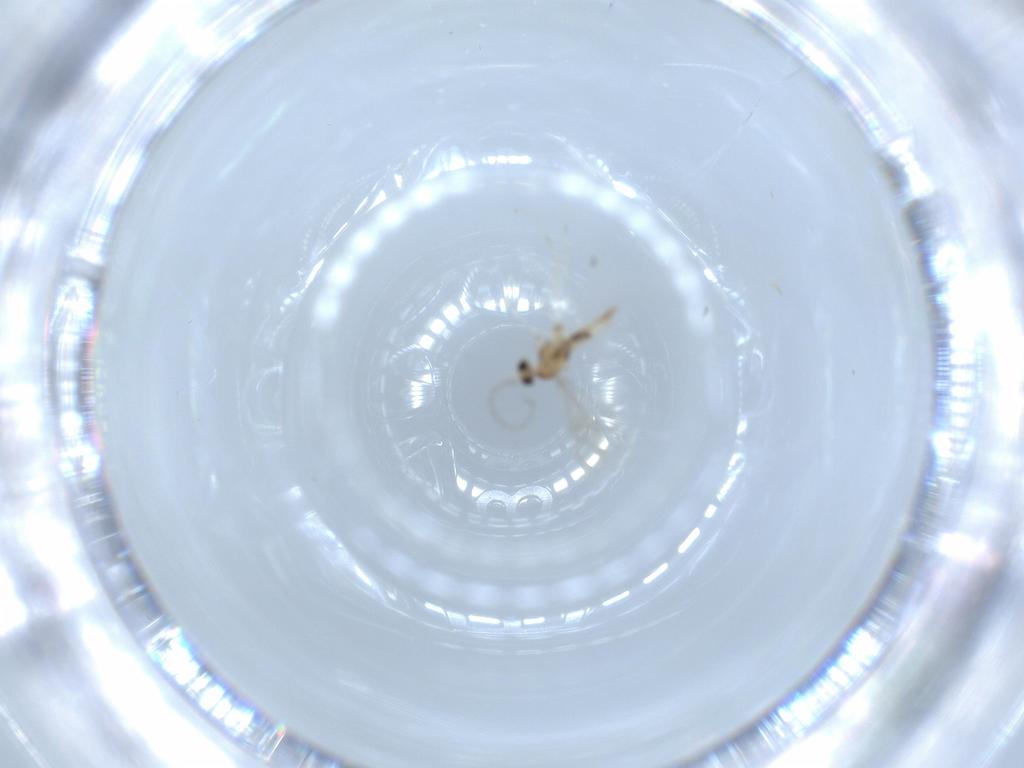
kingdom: Animalia
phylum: Arthropoda
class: Insecta
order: Diptera
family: Sciaridae
